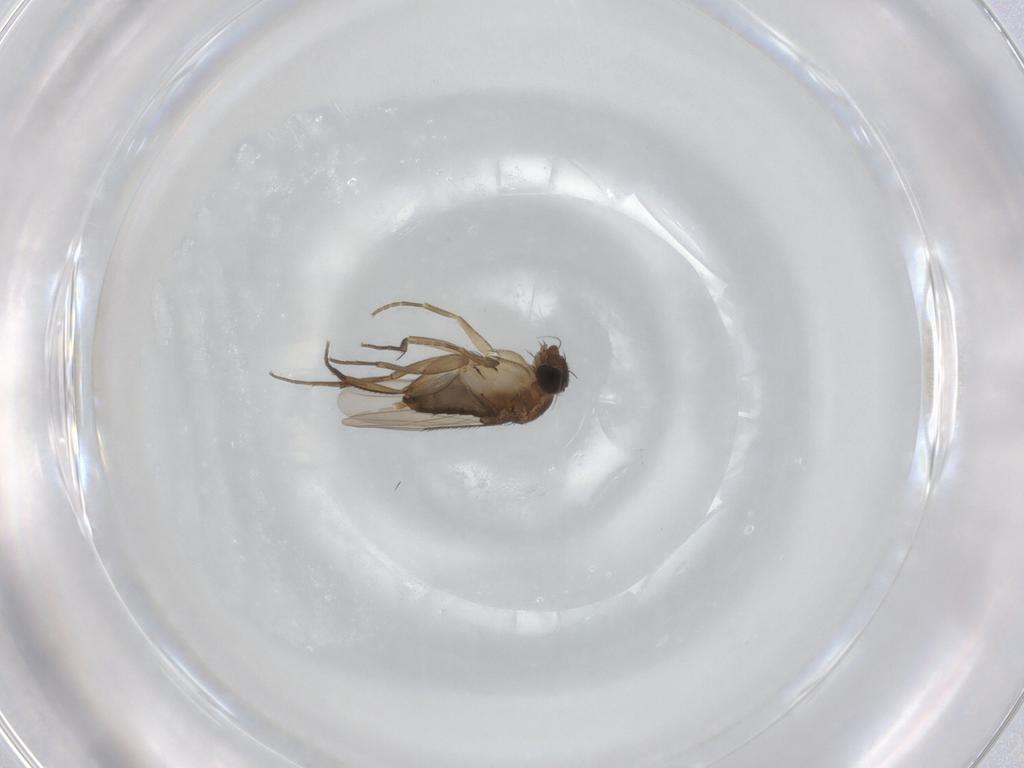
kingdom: Animalia
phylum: Arthropoda
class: Insecta
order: Diptera
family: Phoridae
